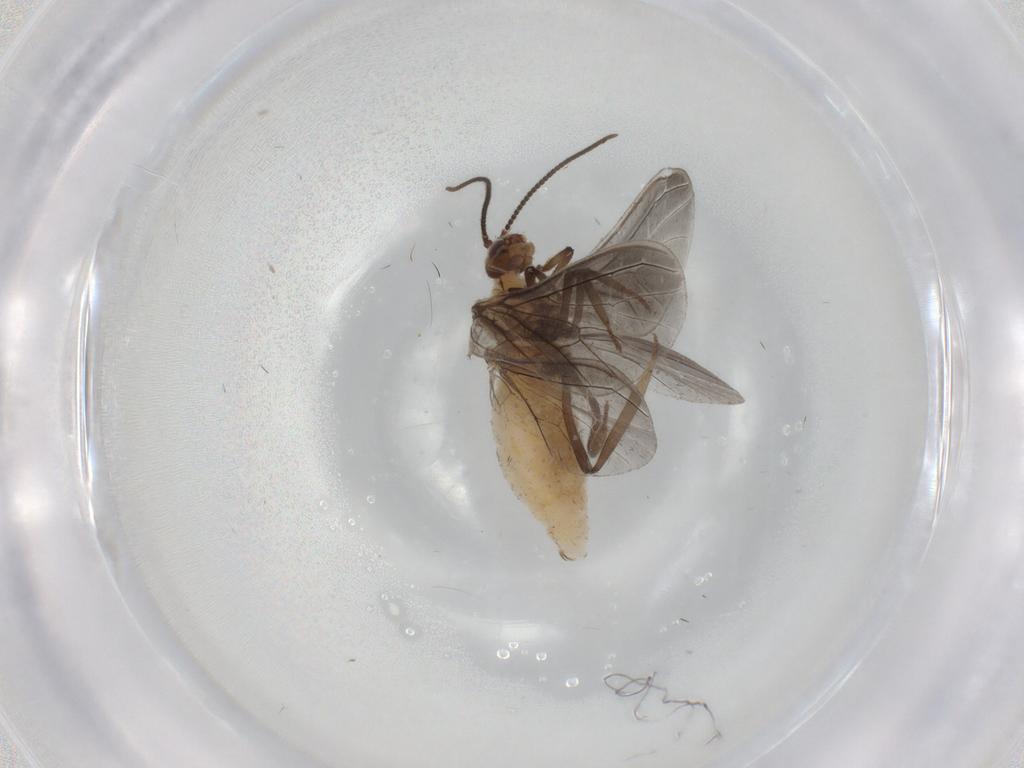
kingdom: Animalia
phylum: Arthropoda
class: Insecta
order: Neuroptera
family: Coniopterygidae
